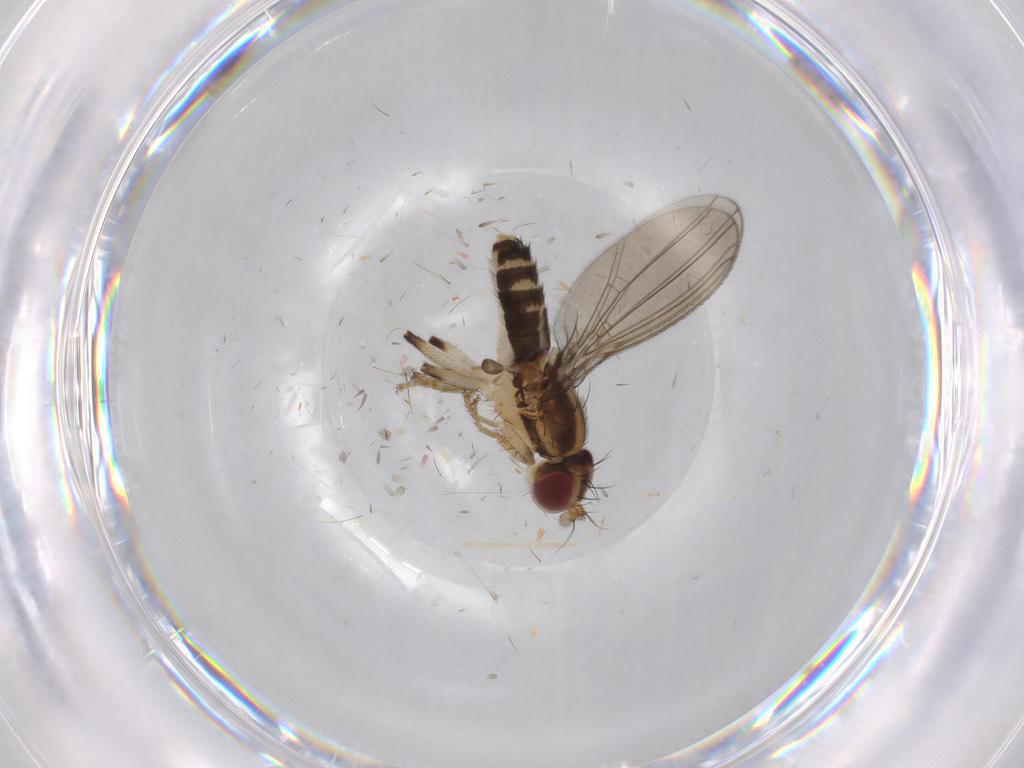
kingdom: Animalia
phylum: Arthropoda
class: Insecta
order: Diptera
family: Anthomyzidae
